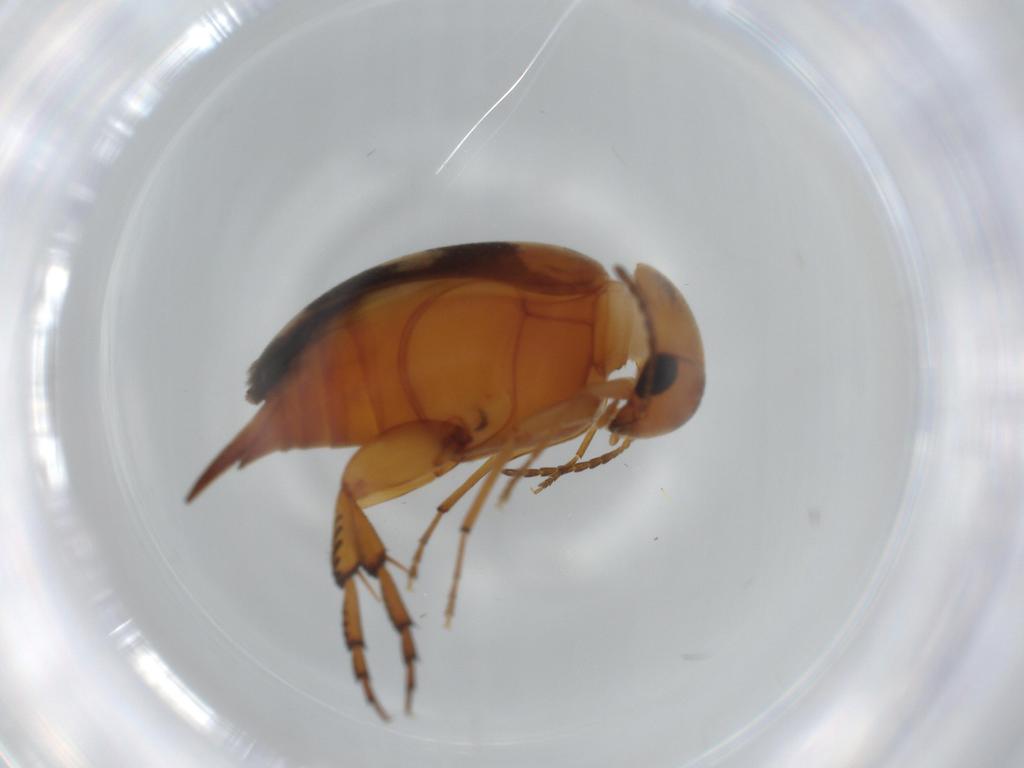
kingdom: Animalia
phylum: Arthropoda
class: Insecta
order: Coleoptera
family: Mordellidae
